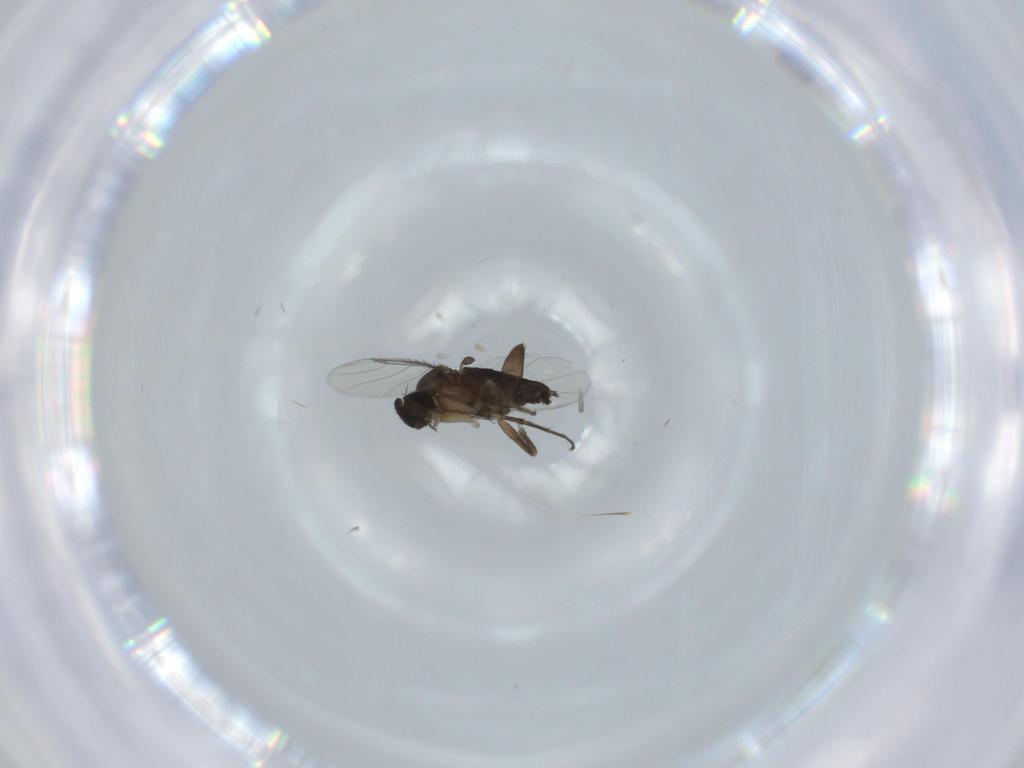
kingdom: Animalia
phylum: Arthropoda
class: Insecta
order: Diptera
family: Phoridae
